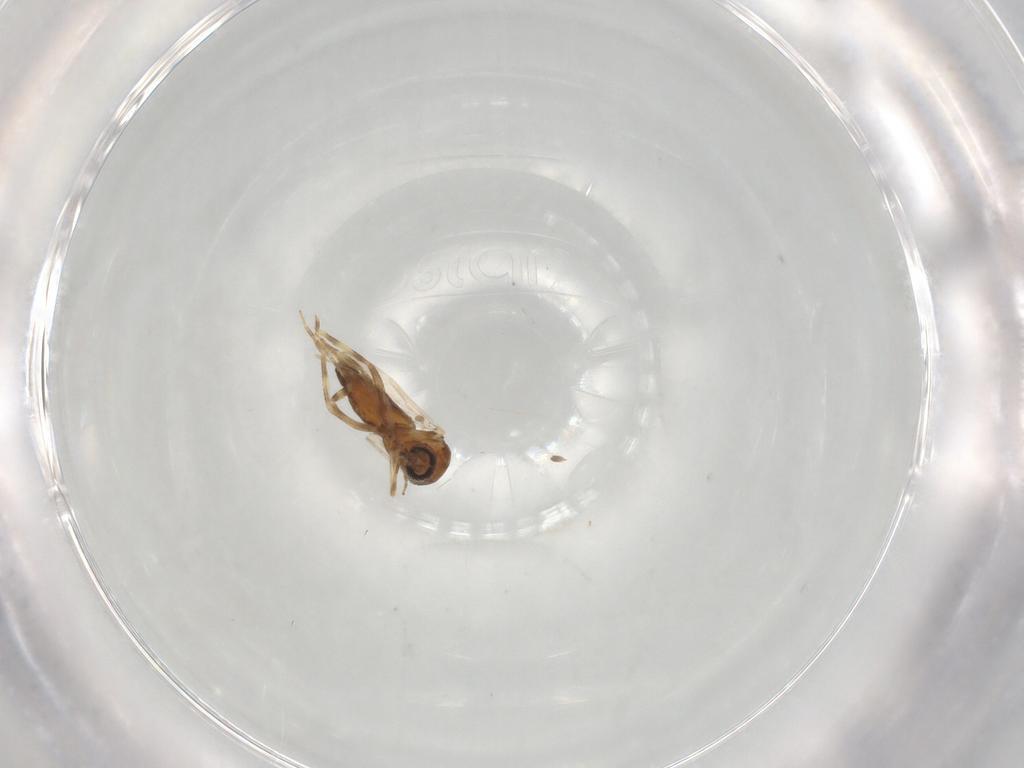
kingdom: Animalia
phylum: Arthropoda
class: Insecta
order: Diptera
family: Ceratopogonidae
